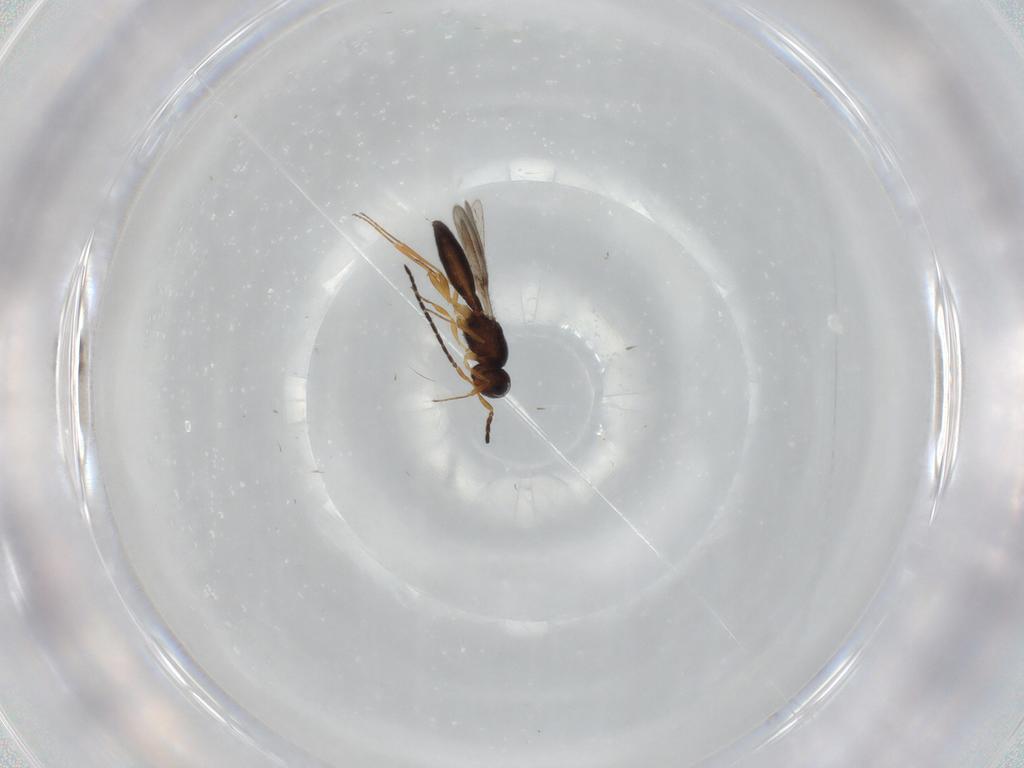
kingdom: Animalia
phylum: Arthropoda
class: Insecta
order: Hymenoptera
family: Scelionidae
